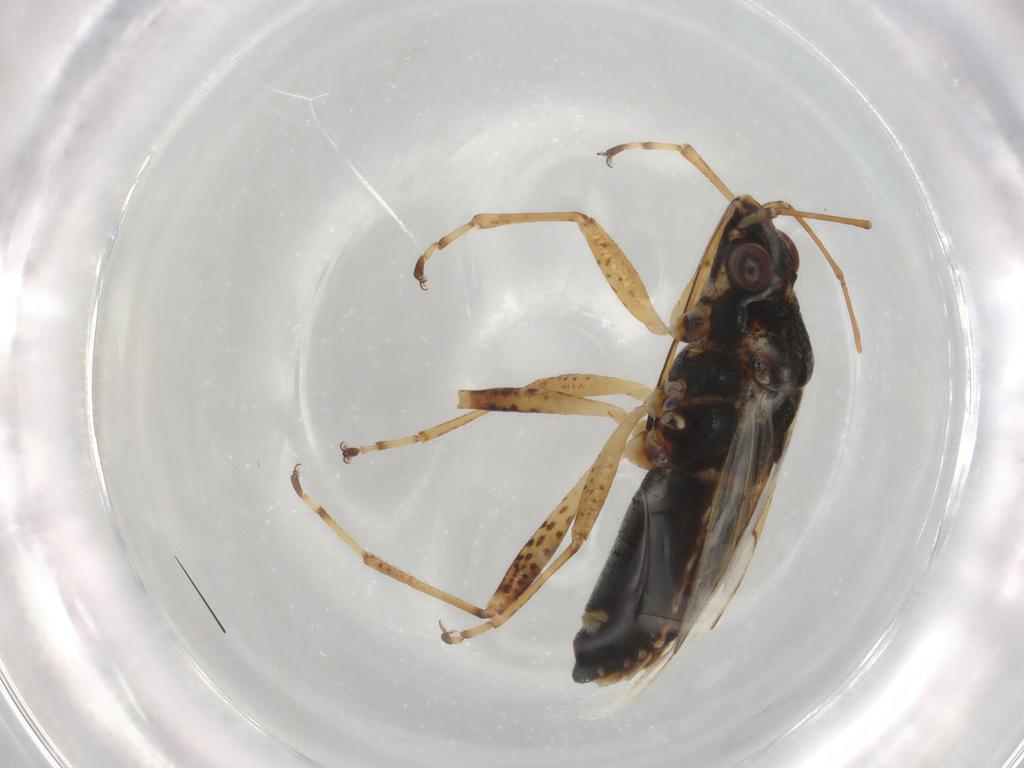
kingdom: Animalia
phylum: Arthropoda
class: Insecta
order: Hemiptera
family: Lygaeidae
